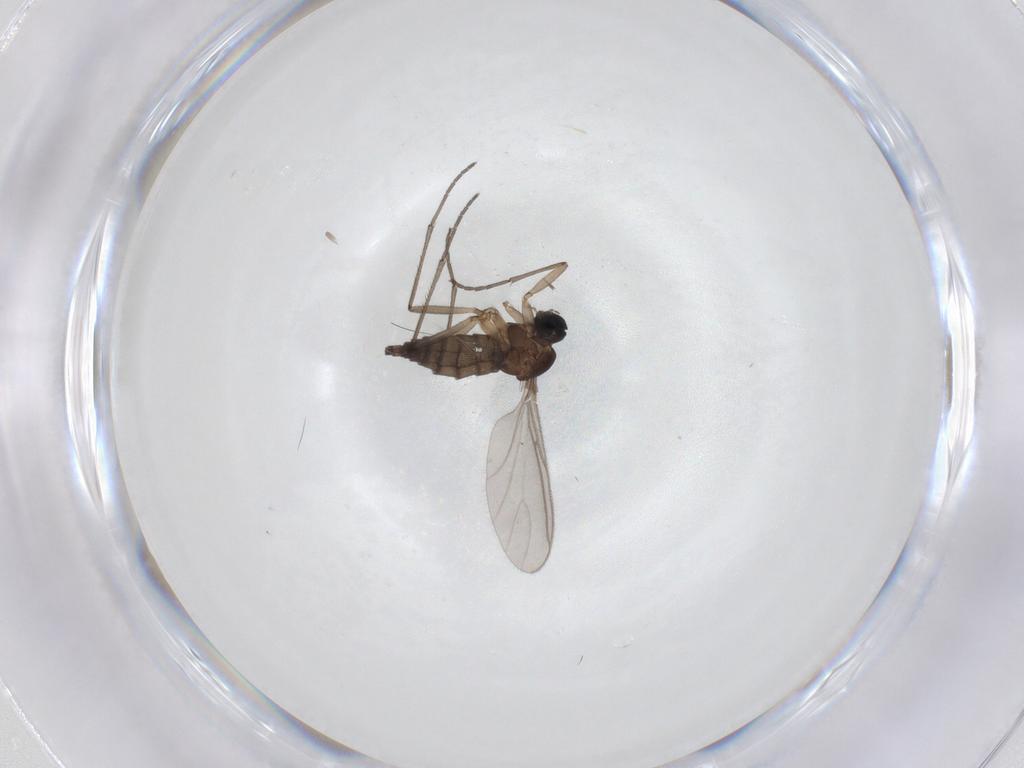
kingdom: Animalia
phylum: Arthropoda
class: Insecta
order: Diptera
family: Sciaridae
